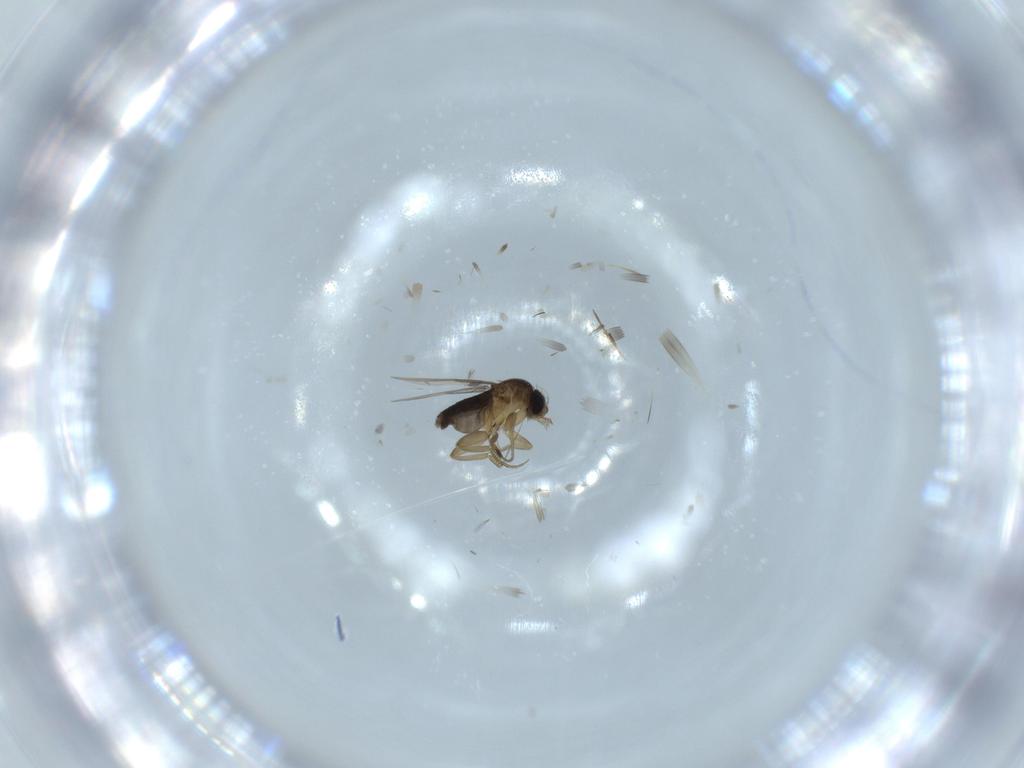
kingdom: Animalia
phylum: Arthropoda
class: Insecta
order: Diptera
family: Phoridae
